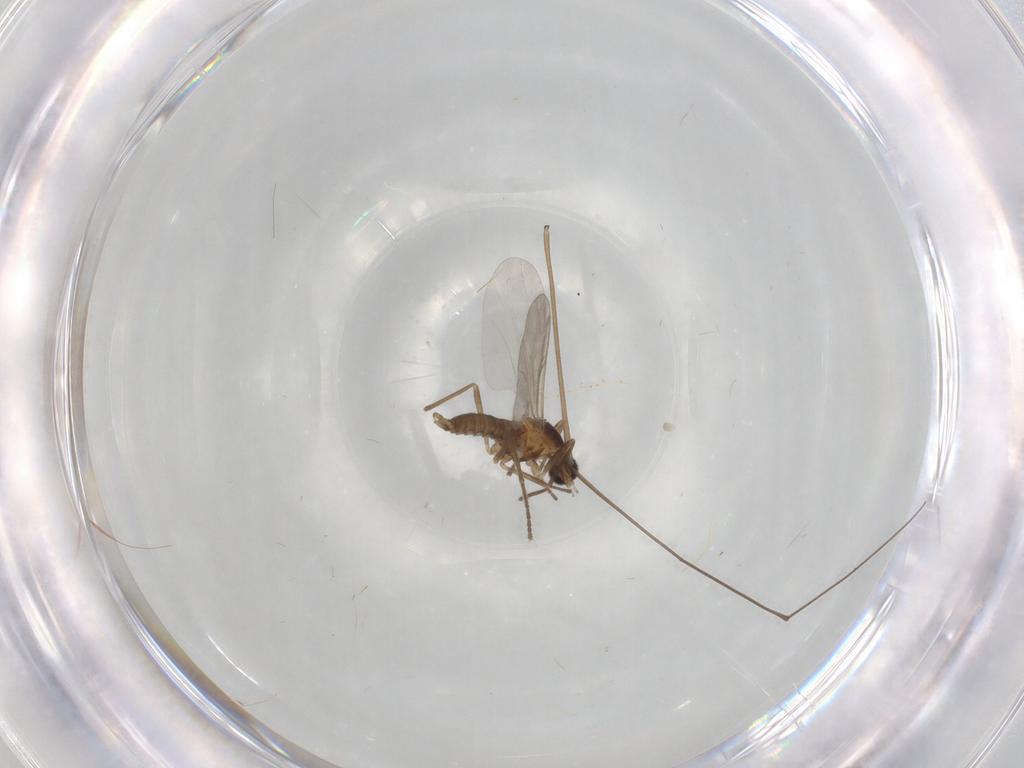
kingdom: Animalia
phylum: Arthropoda
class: Insecta
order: Diptera
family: Cecidomyiidae
